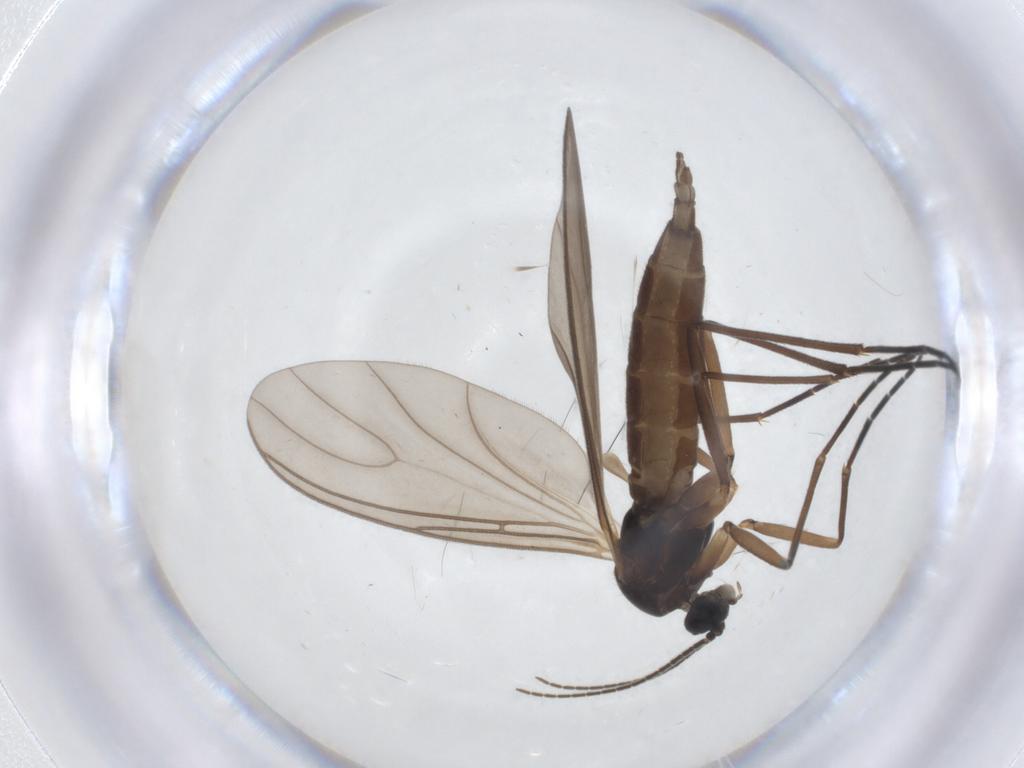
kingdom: Animalia
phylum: Arthropoda
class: Insecta
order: Diptera
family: Sciaridae
